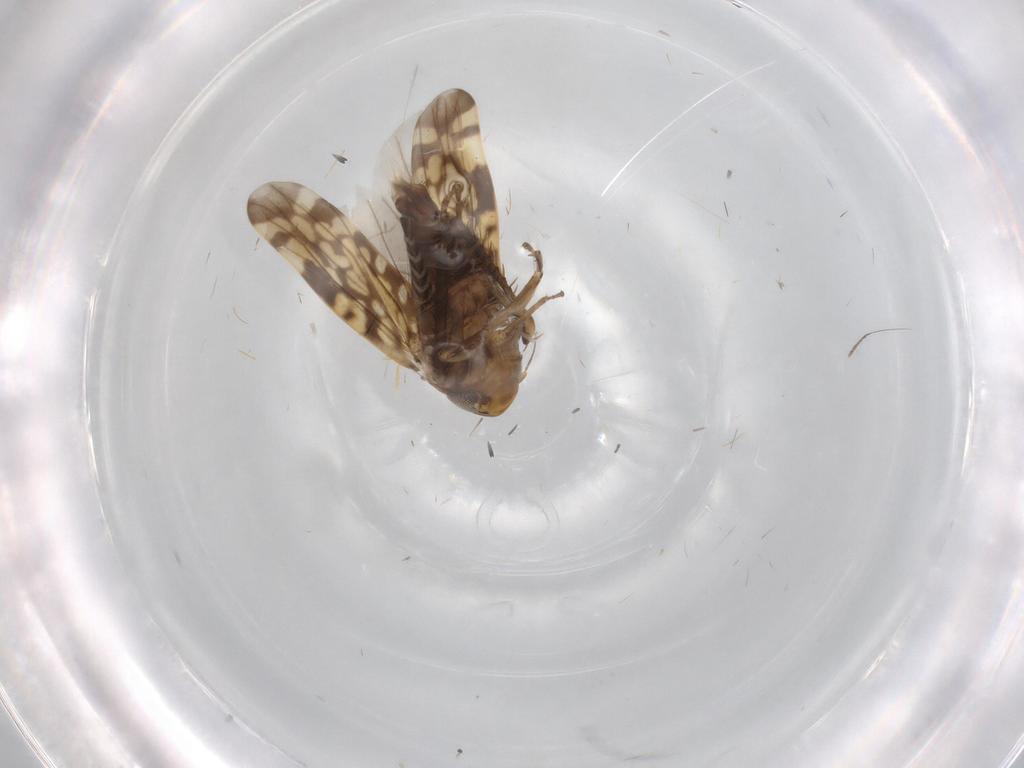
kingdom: Animalia
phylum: Arthropoda
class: Insecta
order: Hemiptera
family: Cicadellidae
